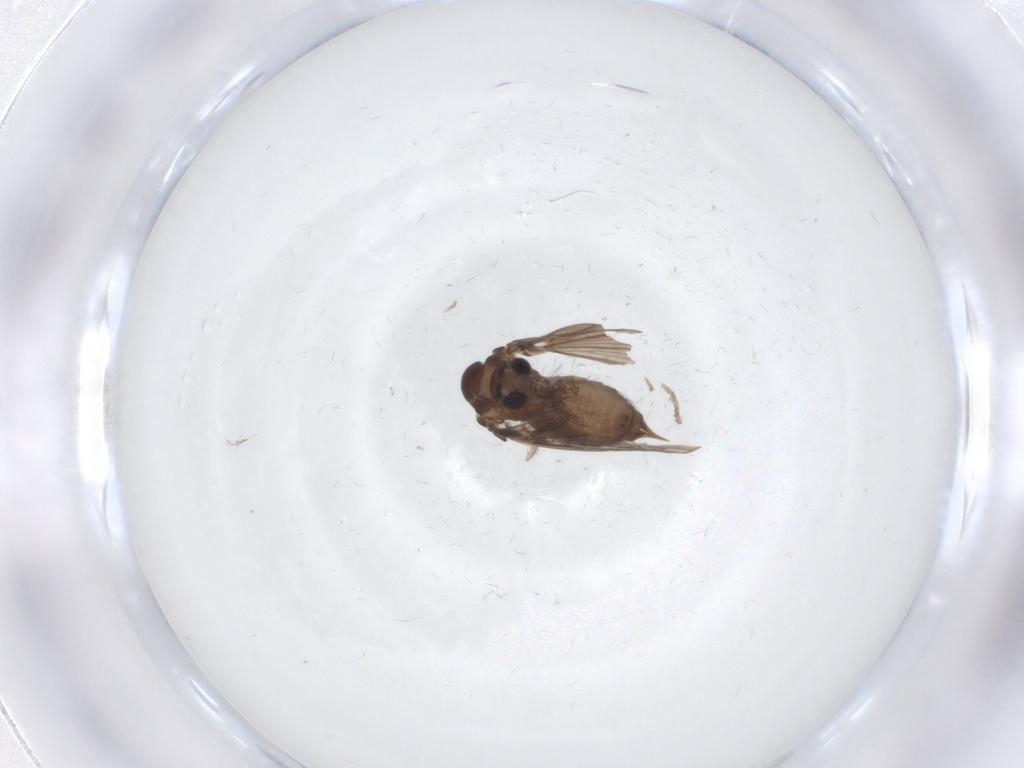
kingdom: Animalia
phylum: Arthropoda
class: Insecta
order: Diptera
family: Psychodidae
